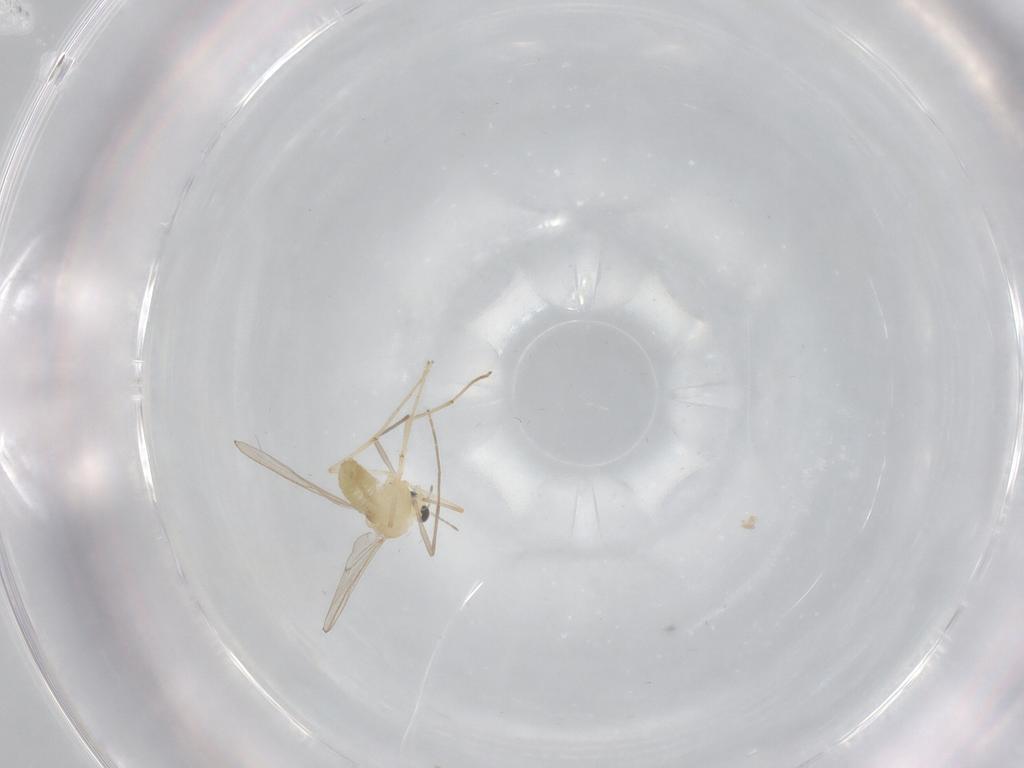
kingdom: Animalia
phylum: Arthropoda
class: Insecta
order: Diptera
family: Chironomidae
